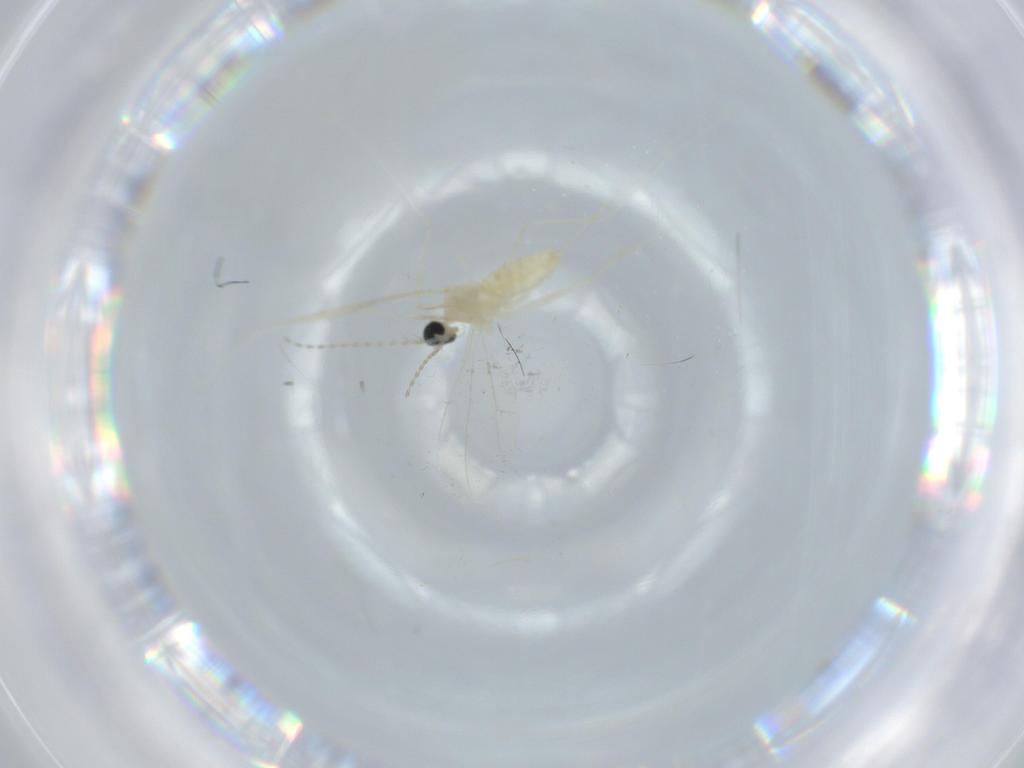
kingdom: Animalia
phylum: Arthropoda
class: Insecta
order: Diptera
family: Cecidomyiidae
